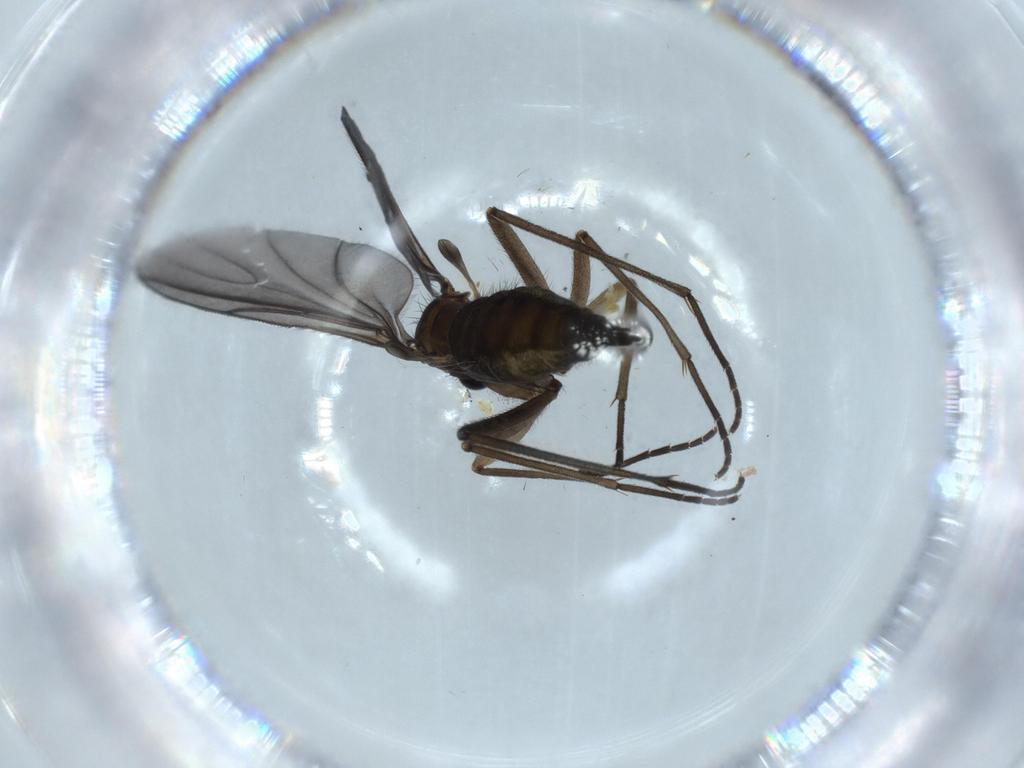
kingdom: Animalia
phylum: Arthropoda
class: Insecta
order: Diptera
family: Sciaridae
